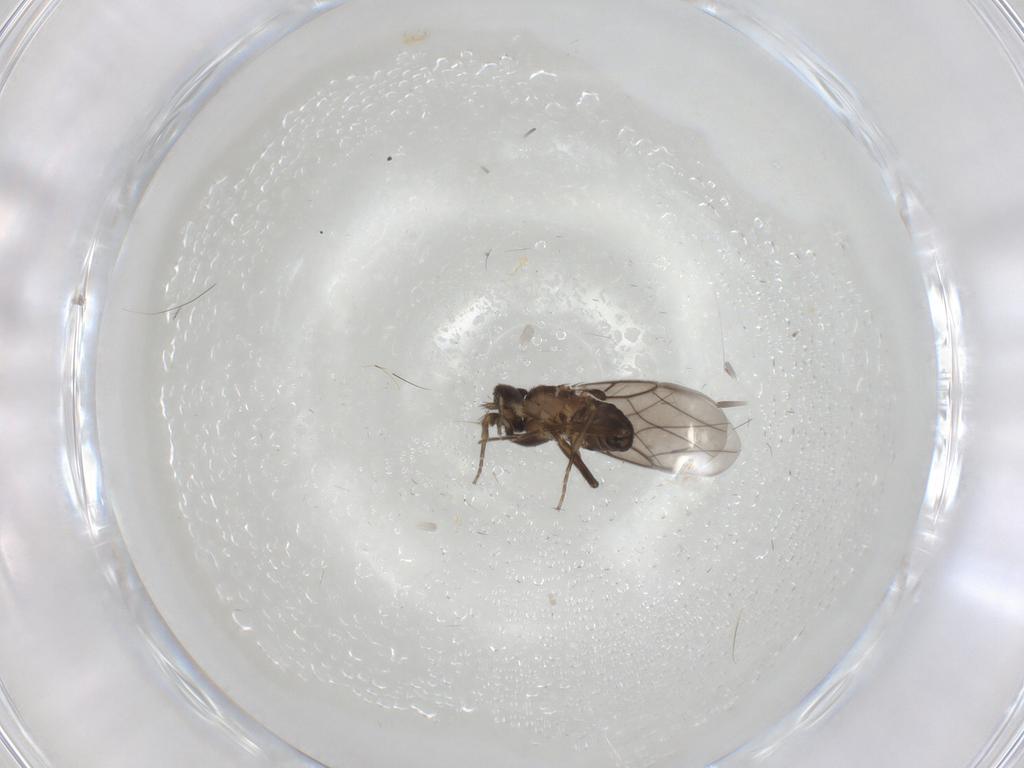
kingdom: Animalia
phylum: Arthropoda
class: Insecta
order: Diptera
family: Phoridae
